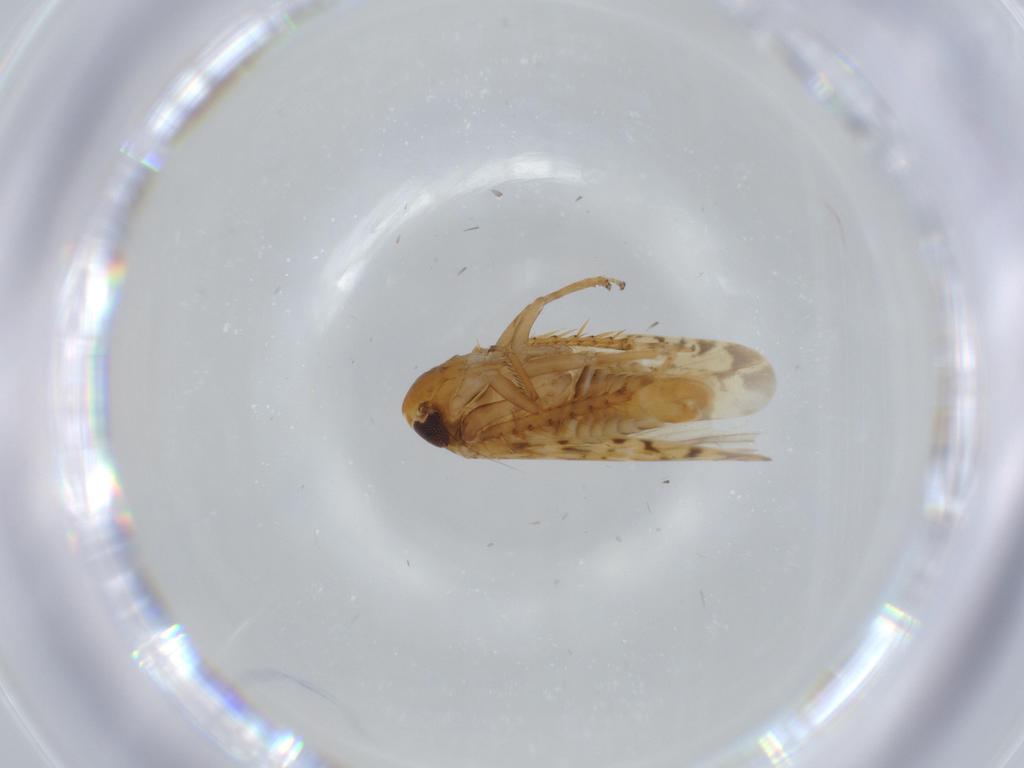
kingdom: Animalia
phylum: Arthropoda
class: Insecta
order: Hemiptera
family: Cicadellidae
